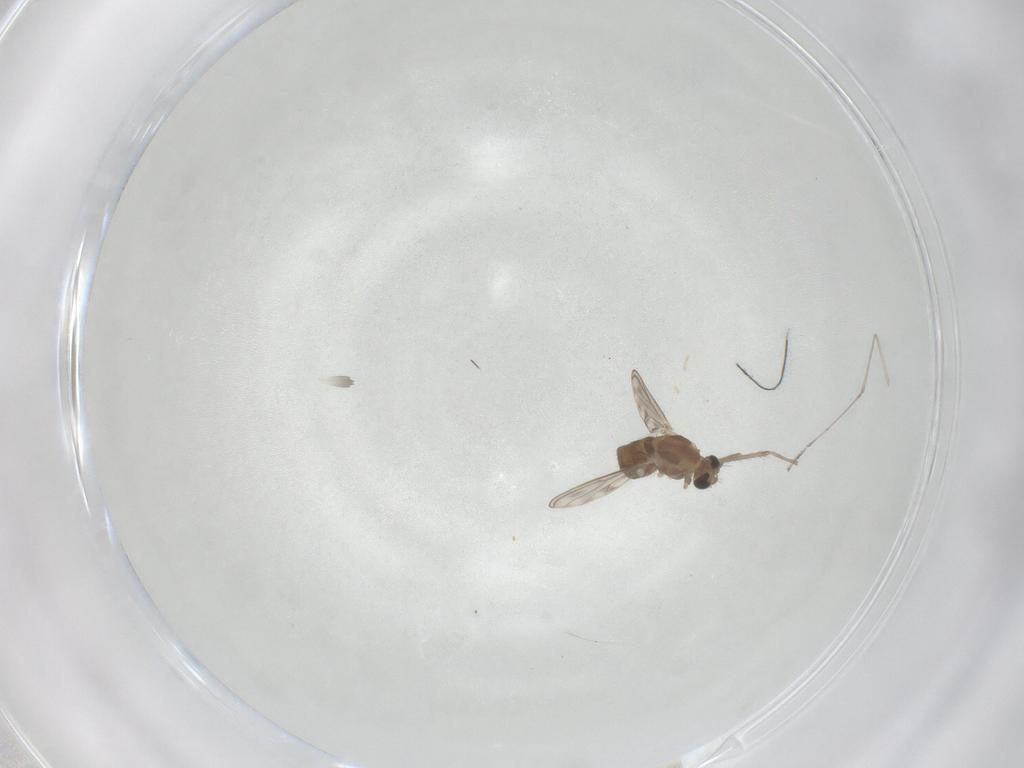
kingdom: Animalia
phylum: Arthropoda
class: Insecta
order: Diptera
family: Chironomidae
